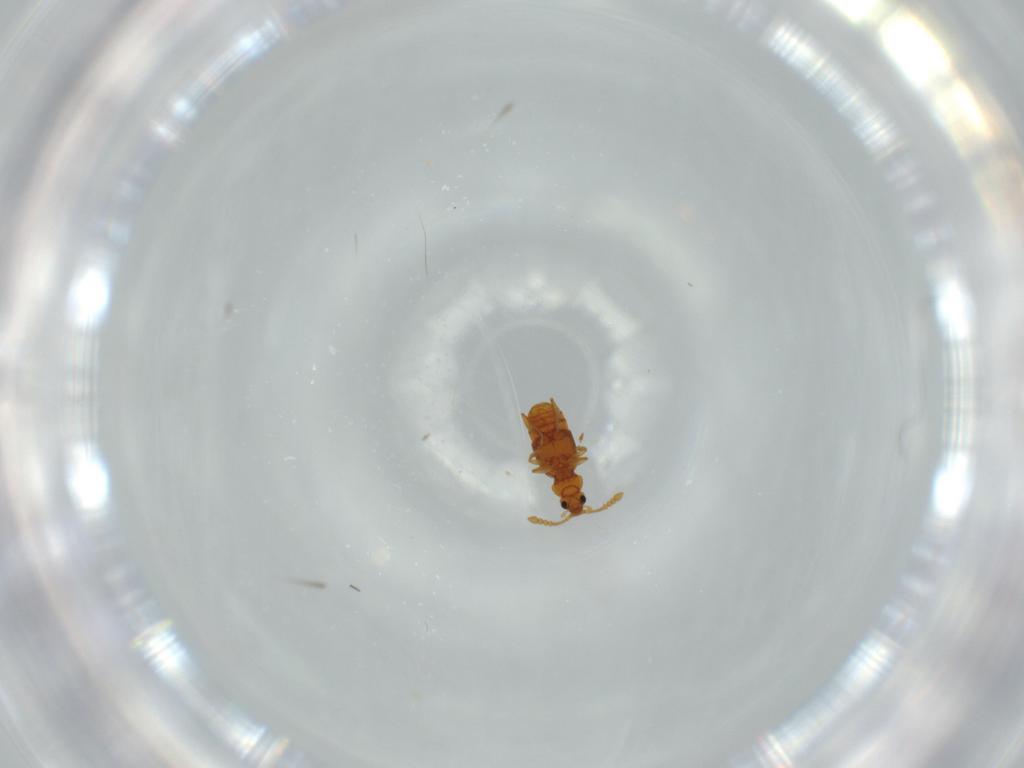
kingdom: Animalia
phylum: Arthropoda
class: Insecta
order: Coleoptera
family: Staphylinidae
